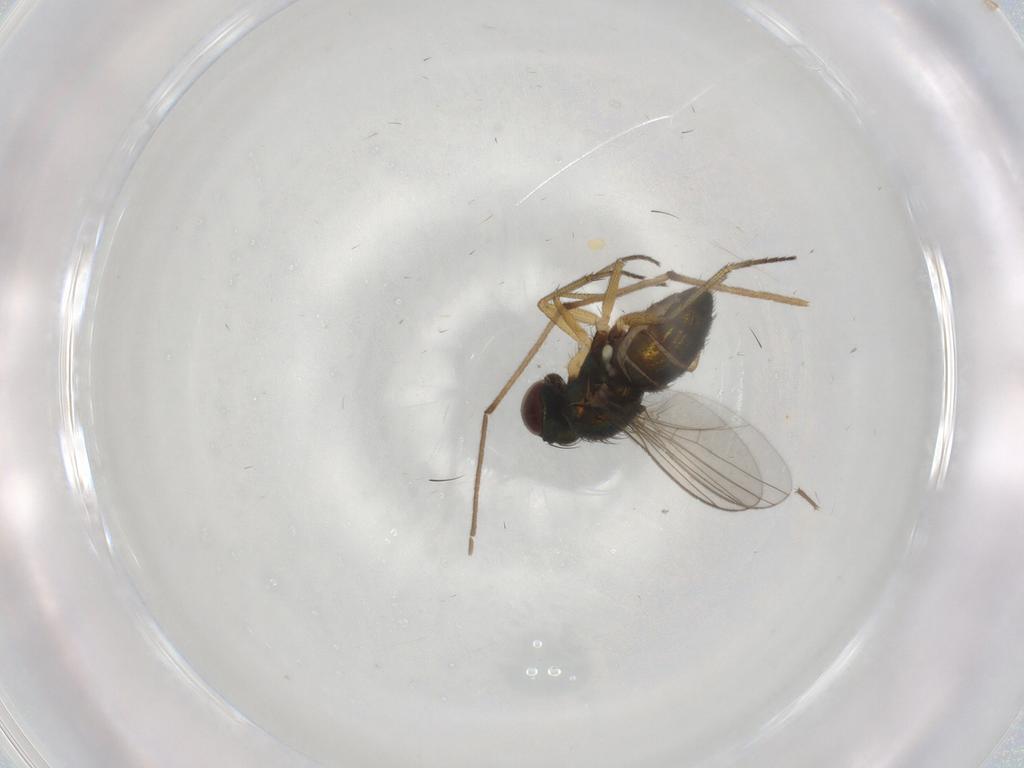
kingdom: Animalia
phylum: Arthropoda
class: Insecta
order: Diptera
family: Dolichopodidae
